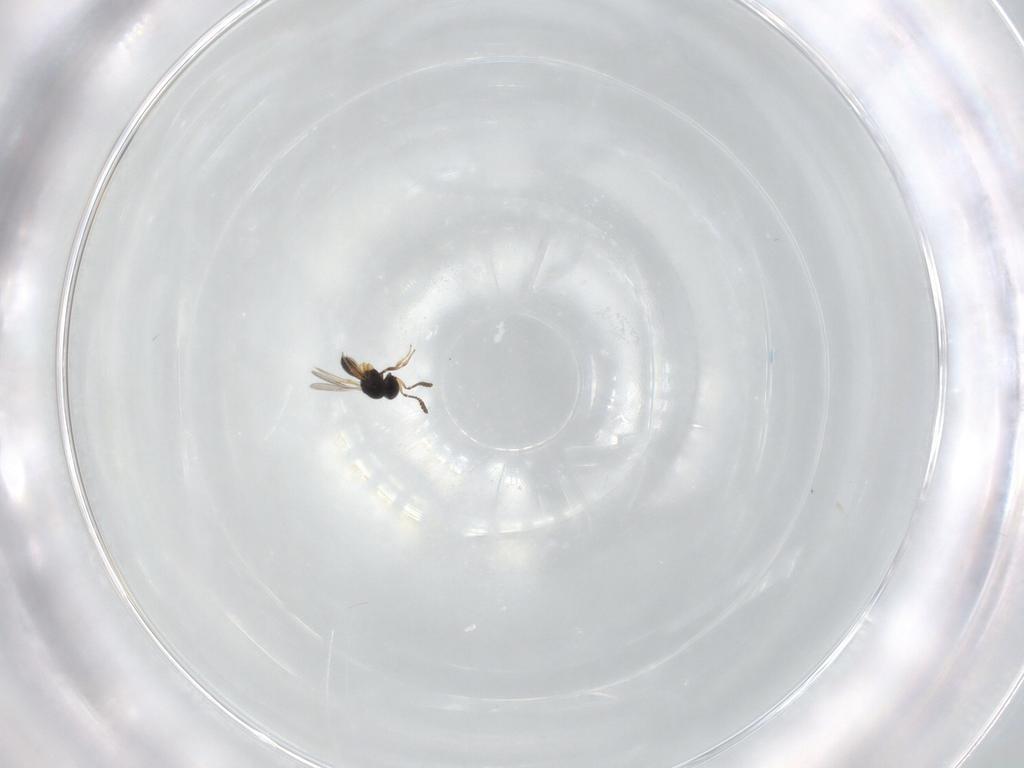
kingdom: Animalia
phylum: Arthropoda
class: Insecta
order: Hymenoptera
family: Scelionidae
